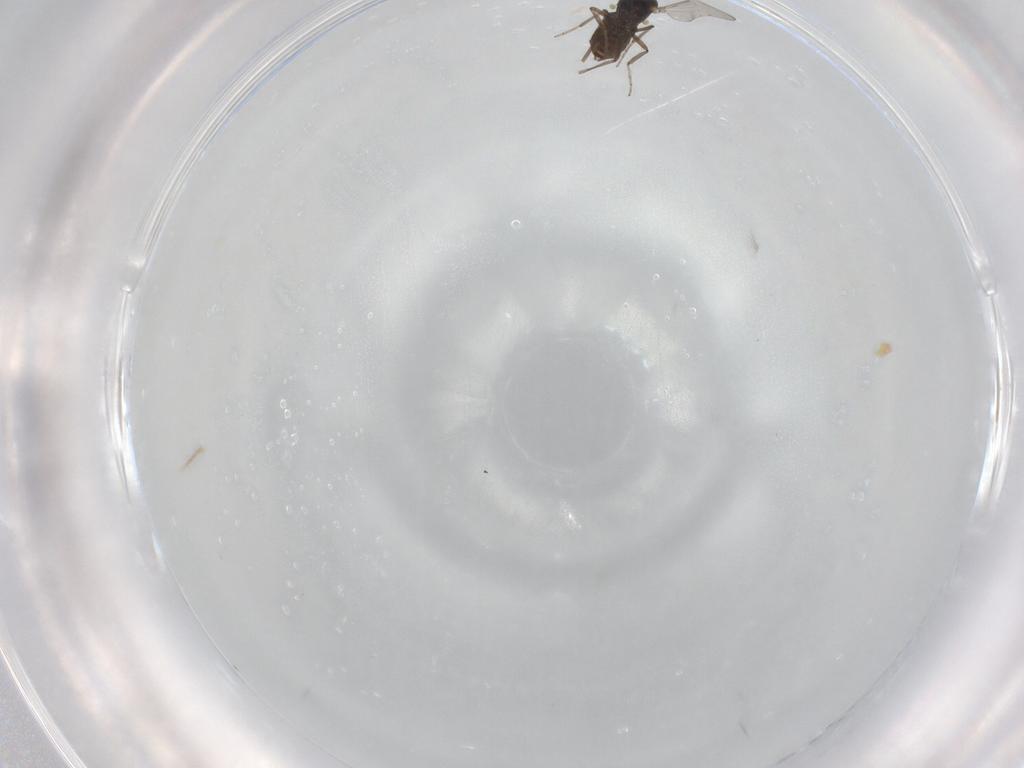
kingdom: Animalia
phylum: Arthropoda
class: Insecta
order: Diptera
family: Ceratopogonidae
